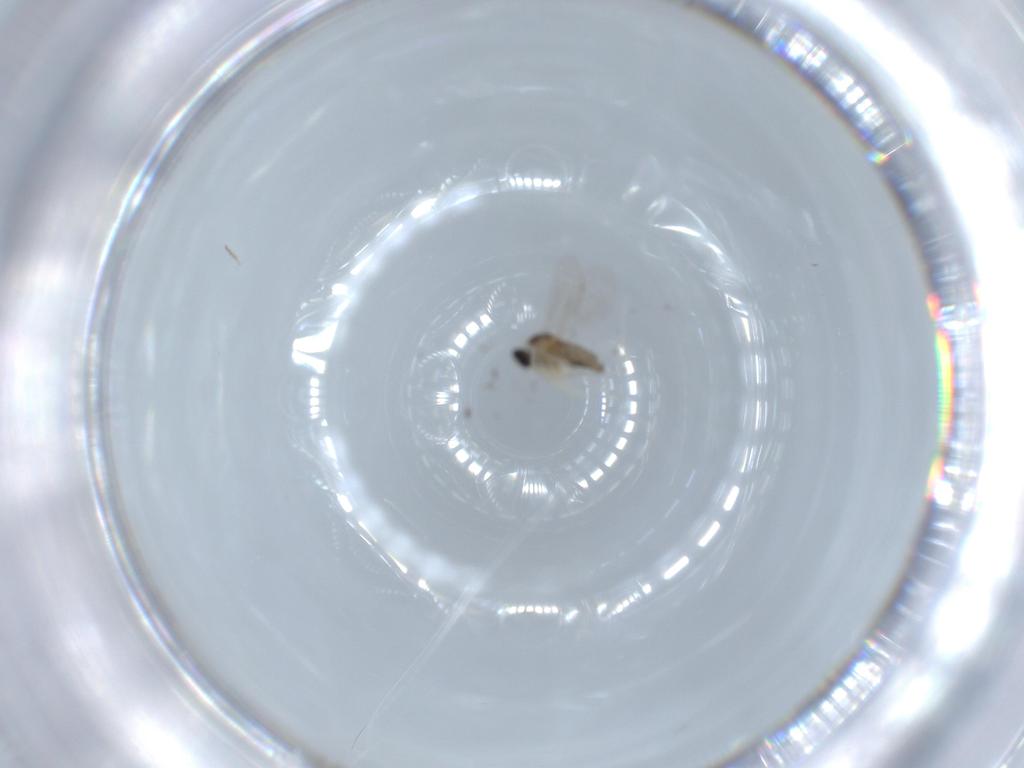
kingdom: Animalia
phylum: Arthropoda
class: Insecta
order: Diptera
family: Cecidomyiidae
